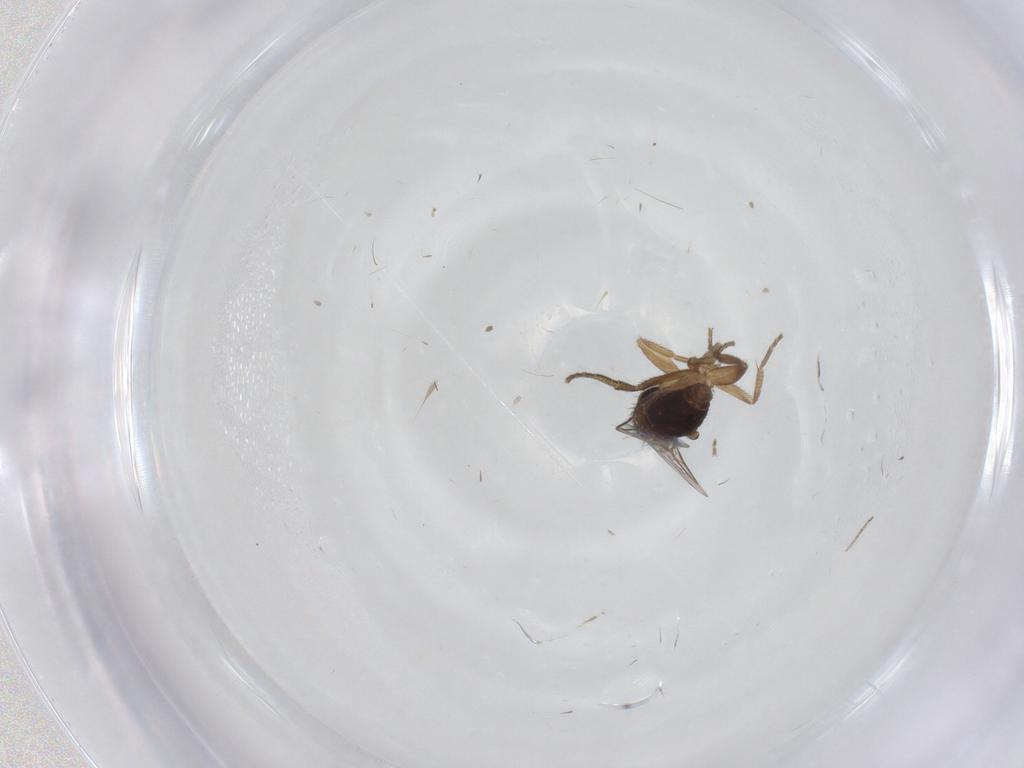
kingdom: Animalia
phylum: Arthropoda
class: Insecta
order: Diptera
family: Phoridae
